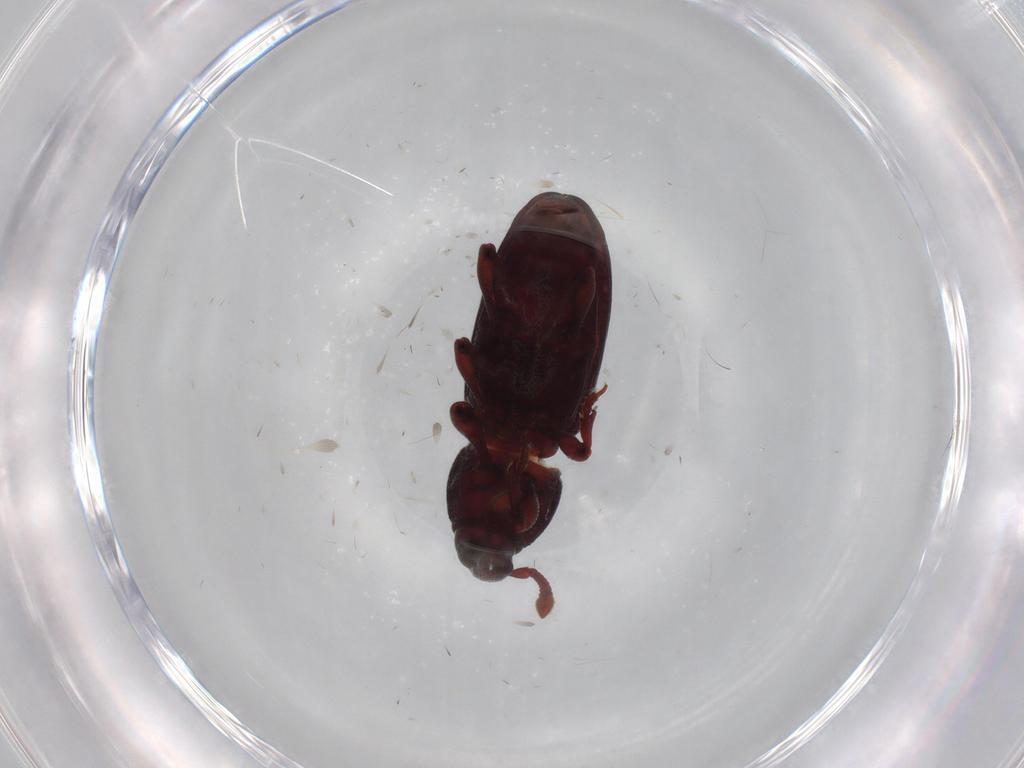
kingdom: Animalia
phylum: Arthropoda
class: Insecta
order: Coleoptera
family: Curculionidae
